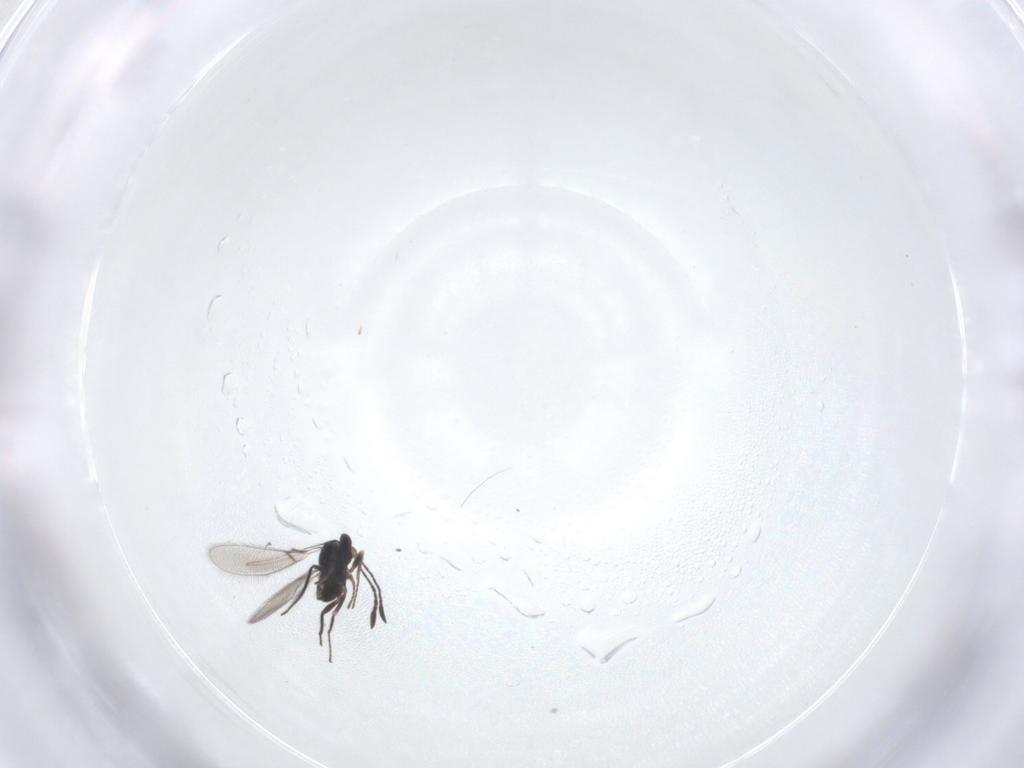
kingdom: Animalia
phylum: Arthropoda
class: Insecta
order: Hymenoptera
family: Mymaridae
